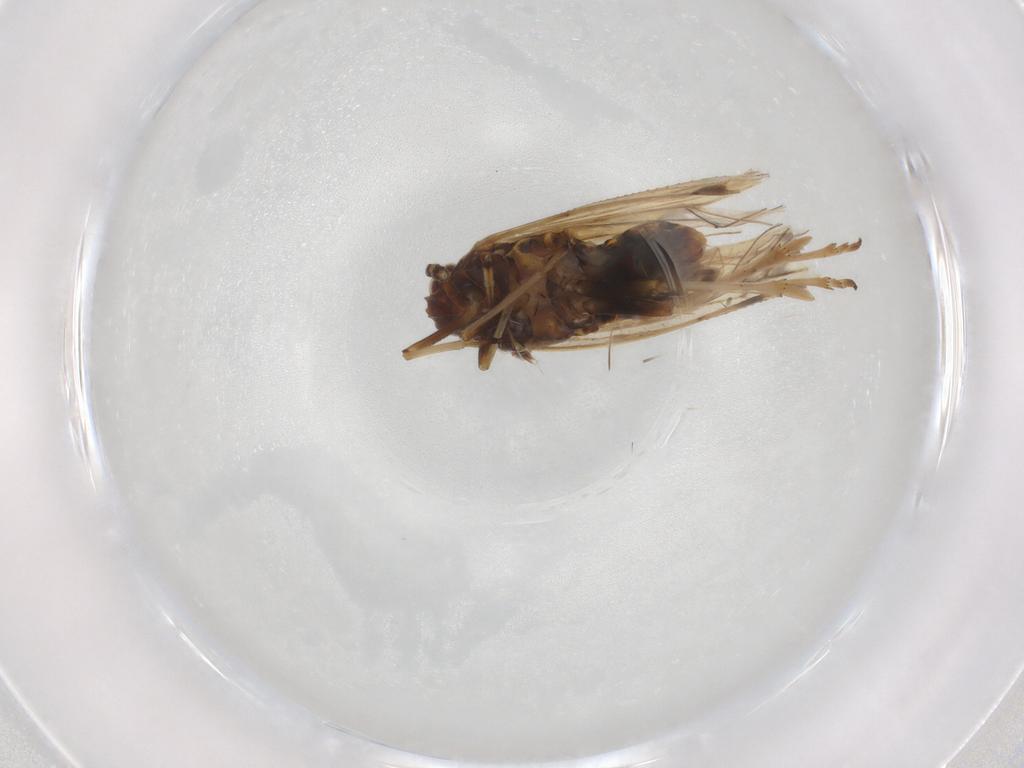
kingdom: Animalia
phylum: Arthropoda
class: Insecta
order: Hemiptera
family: Delphacidae
